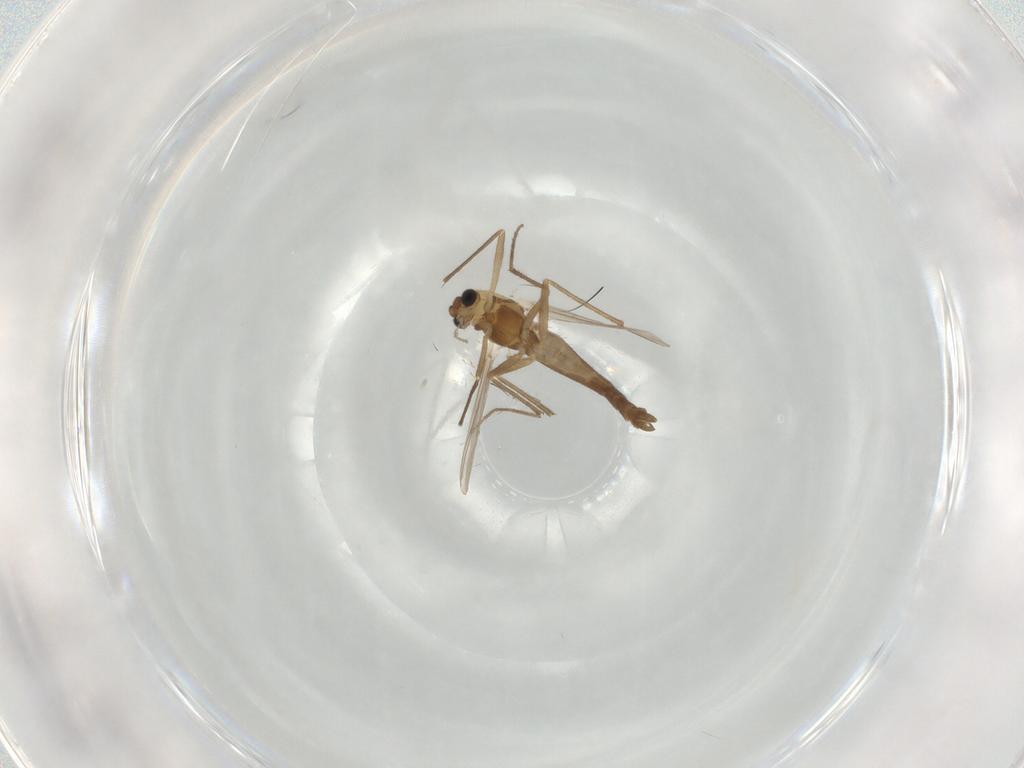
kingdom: Animalia
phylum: Arthropoda
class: Insecta
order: Diptera
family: Chironomidae
